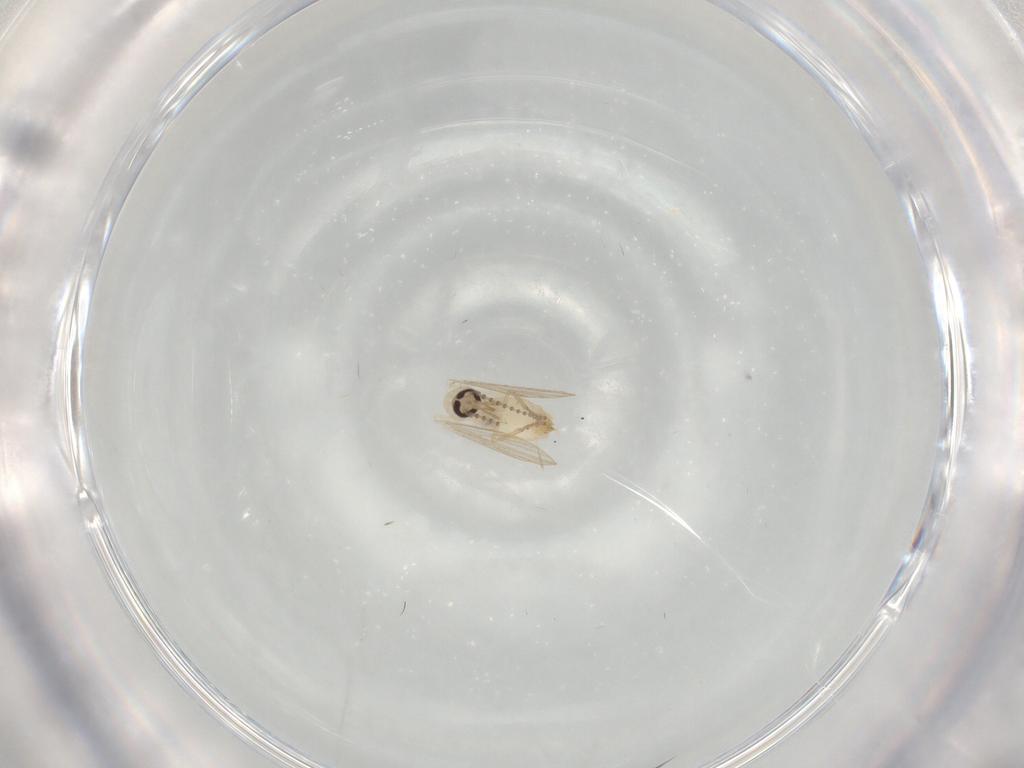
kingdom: Animalia
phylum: Arthropoda
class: Insecta
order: Diptera
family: Psychodidae
